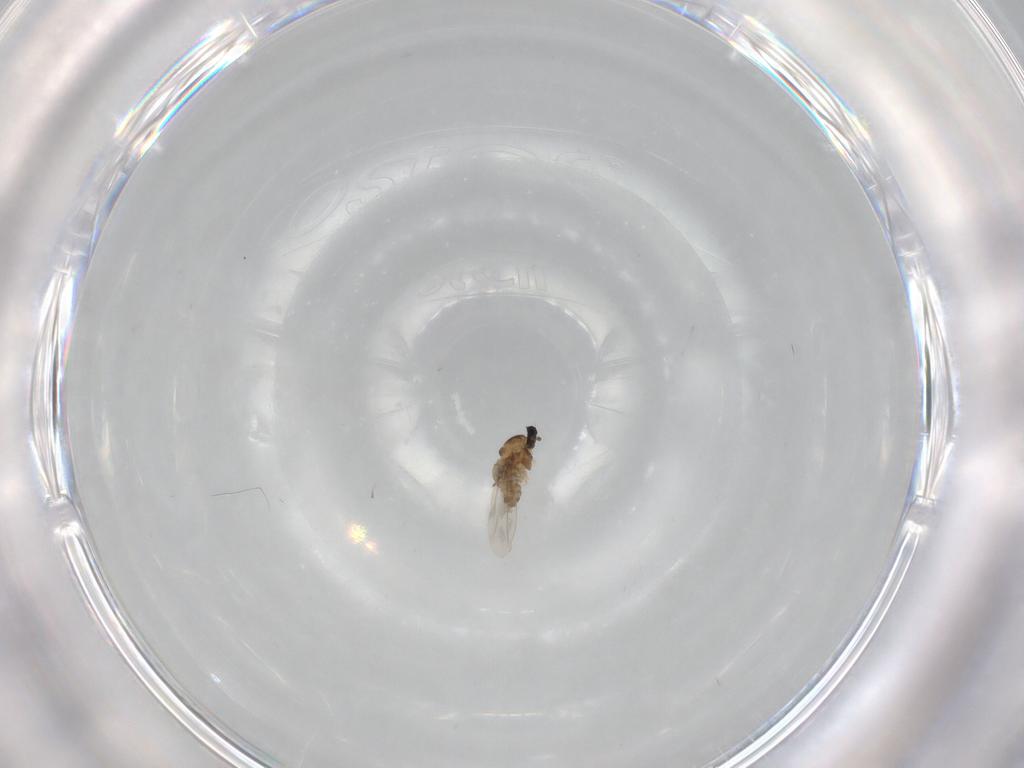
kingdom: Animalia
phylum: Arthropoda
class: Insecta
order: Diptera
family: Cecidomyiidae
